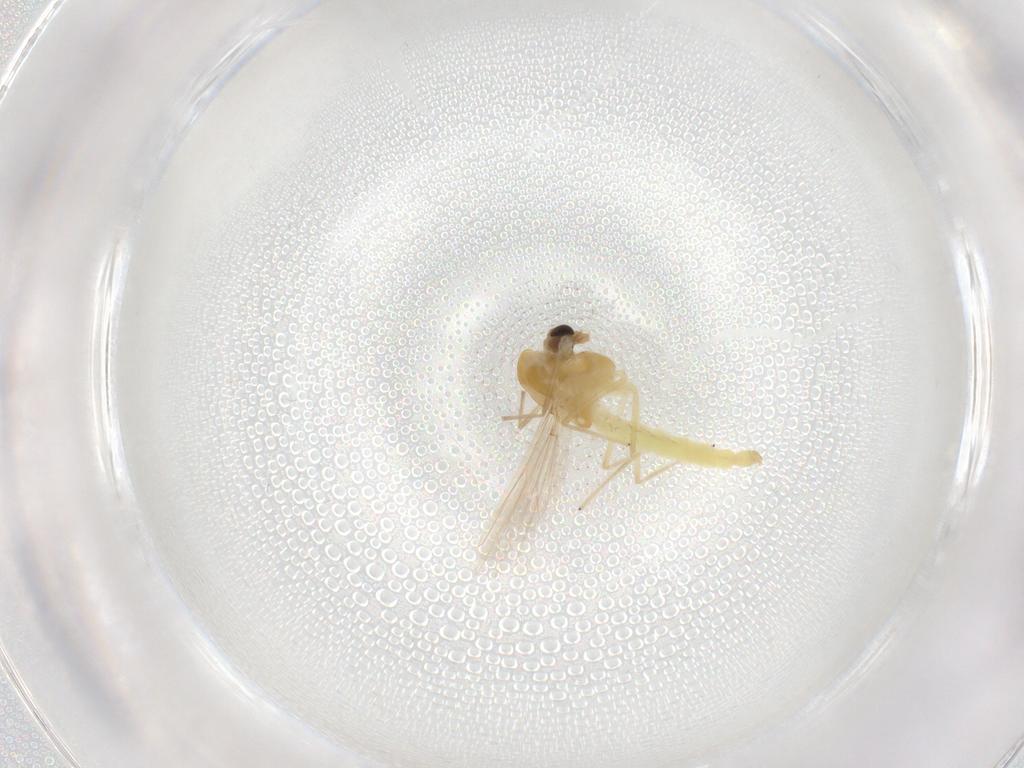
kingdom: Animalia
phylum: Arthropoda
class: Insecta
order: Diptera
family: Chironomidae
